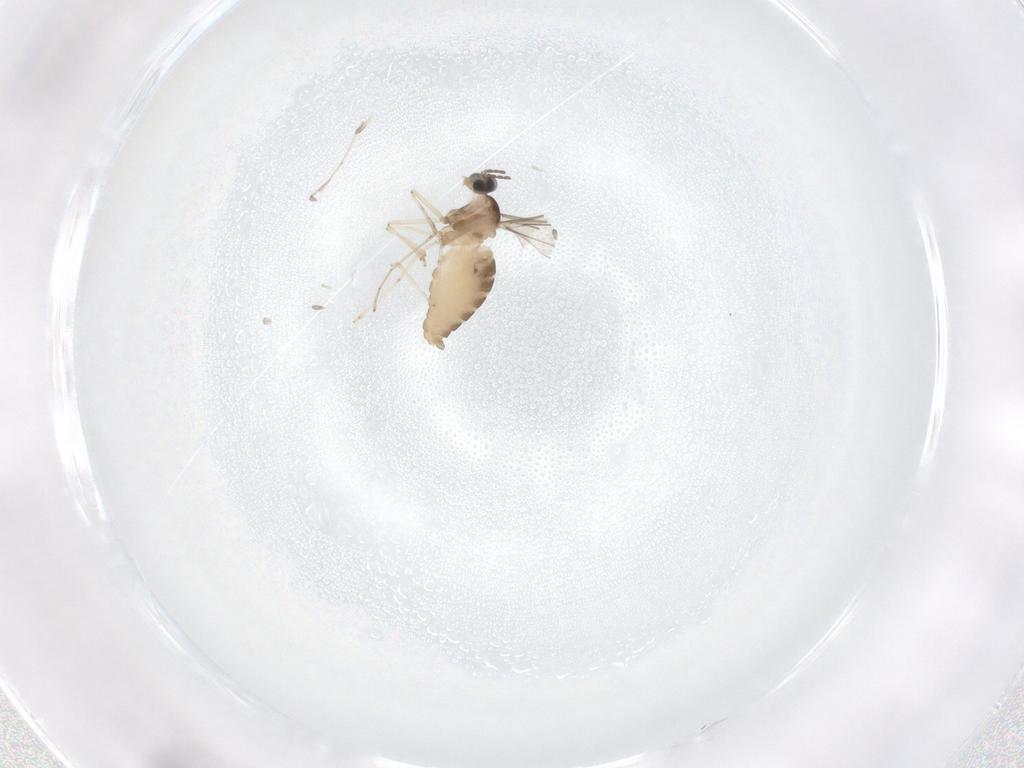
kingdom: Animalia
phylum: Arthropoda
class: Insecta
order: Diptera
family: Cecidomyiidae
